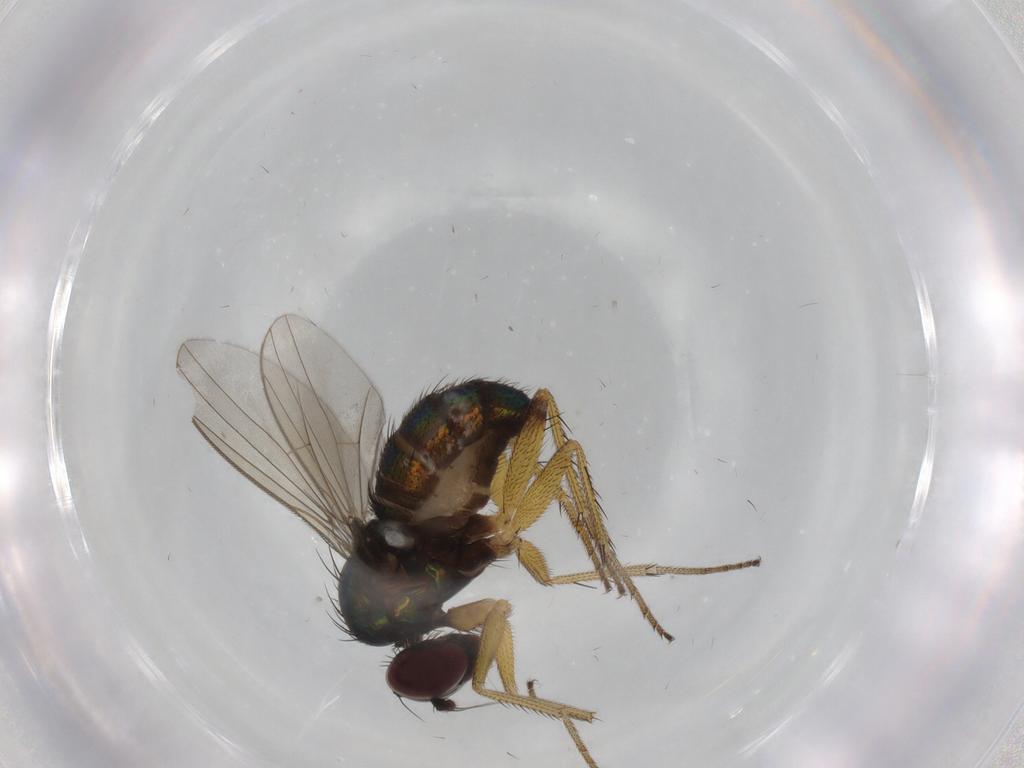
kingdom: Animalia
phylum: Arthropoda
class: Insecta
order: Diptera
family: Dolichopodidae
